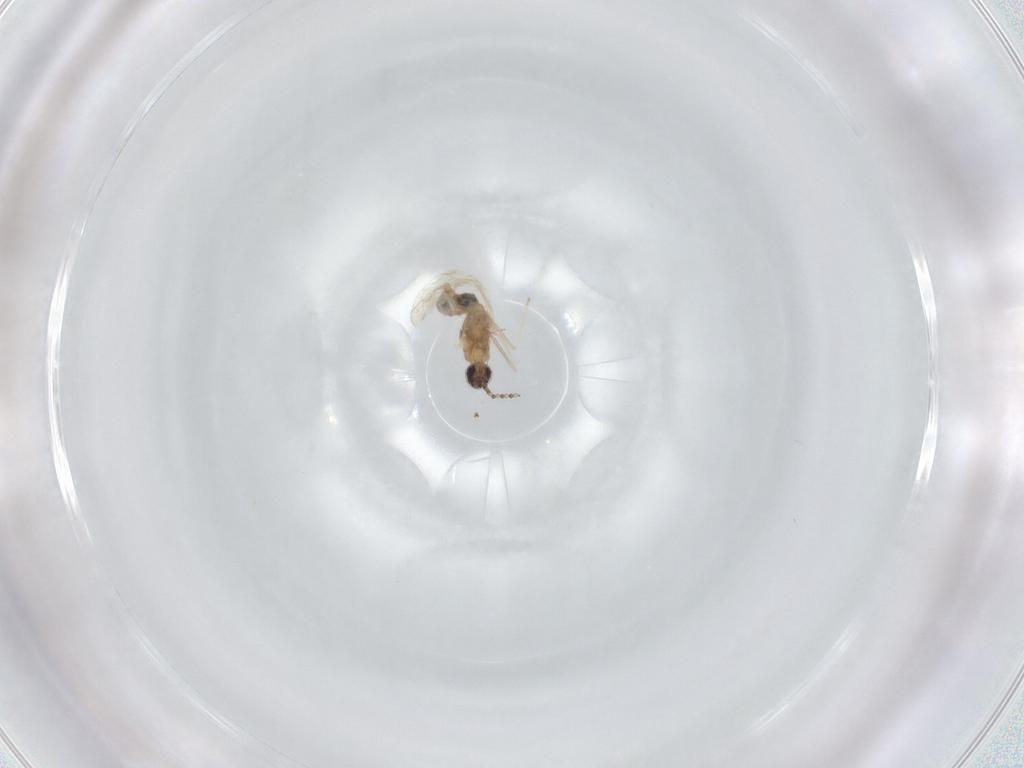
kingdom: Animalia
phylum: Arthropoda
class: Insecta
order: Diptera
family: Cecidomyiidae
